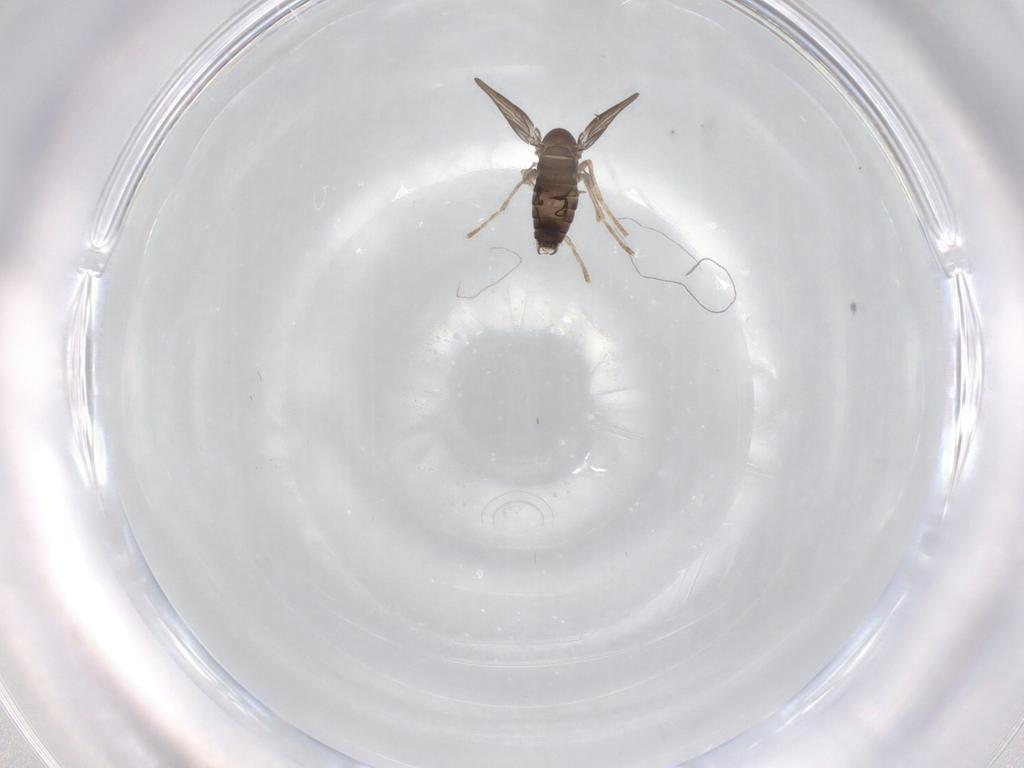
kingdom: Animalia
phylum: Arthropoda
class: Insecta
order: Diptera
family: Psychodidae
